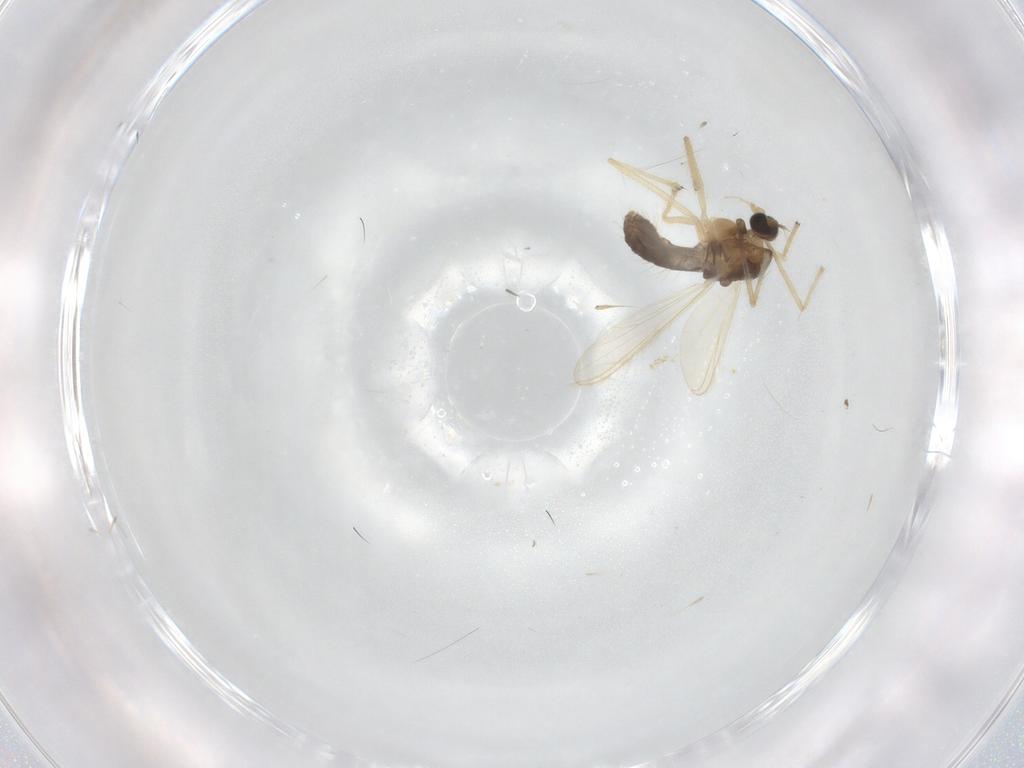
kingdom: Animalia
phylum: Arthropoda
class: Insecta
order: Diptera
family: Chironomidae
